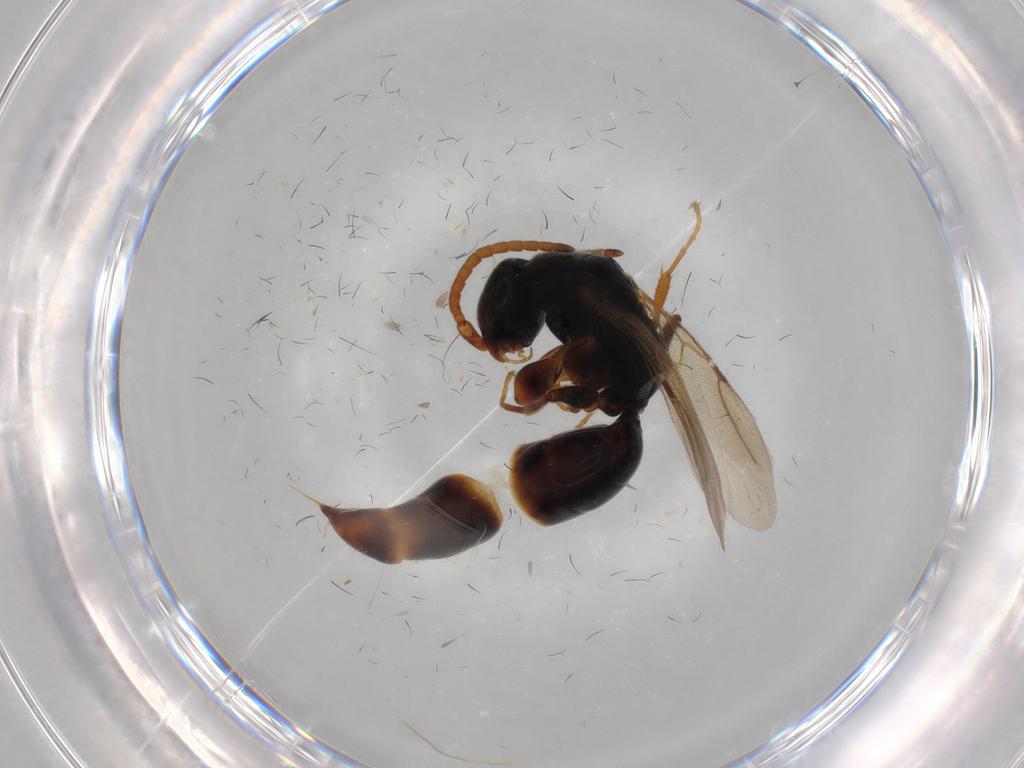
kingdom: Animalia
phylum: Arthropoda
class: Insecta
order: Hymenoptera
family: Bethylidae
